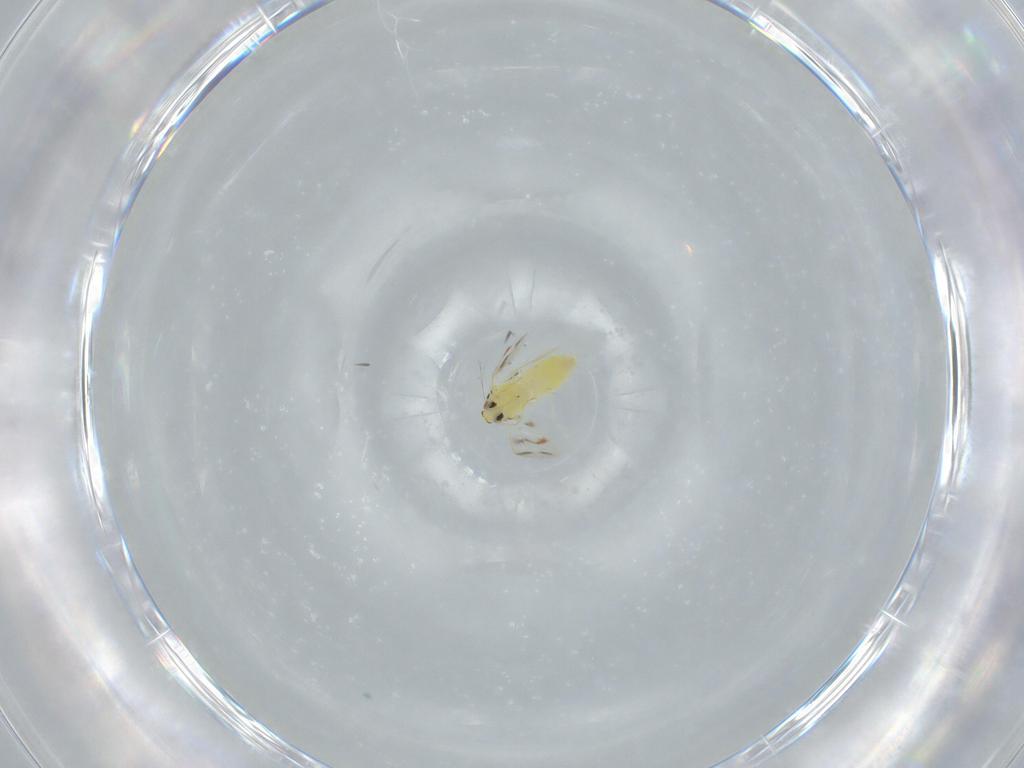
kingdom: Animalia
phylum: Arthropoda
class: Insecta
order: Hemiptera
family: Aleyrodidae
